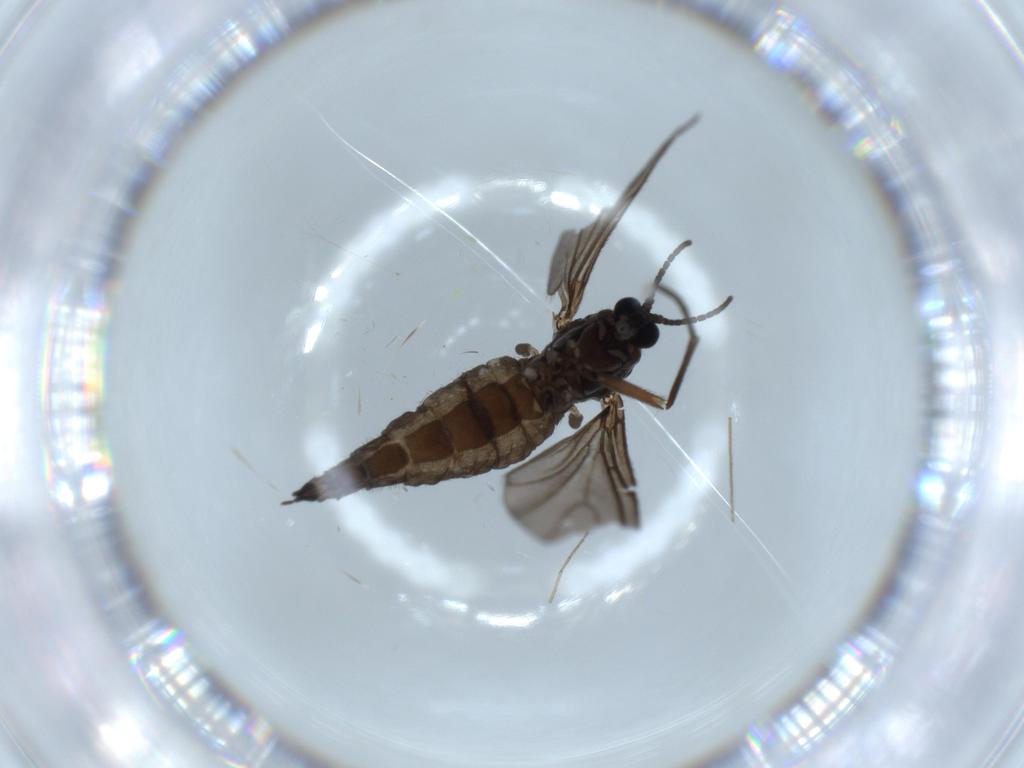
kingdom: Animalia
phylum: Arthropoda
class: Insecta
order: Diptera
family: Sciaridae
